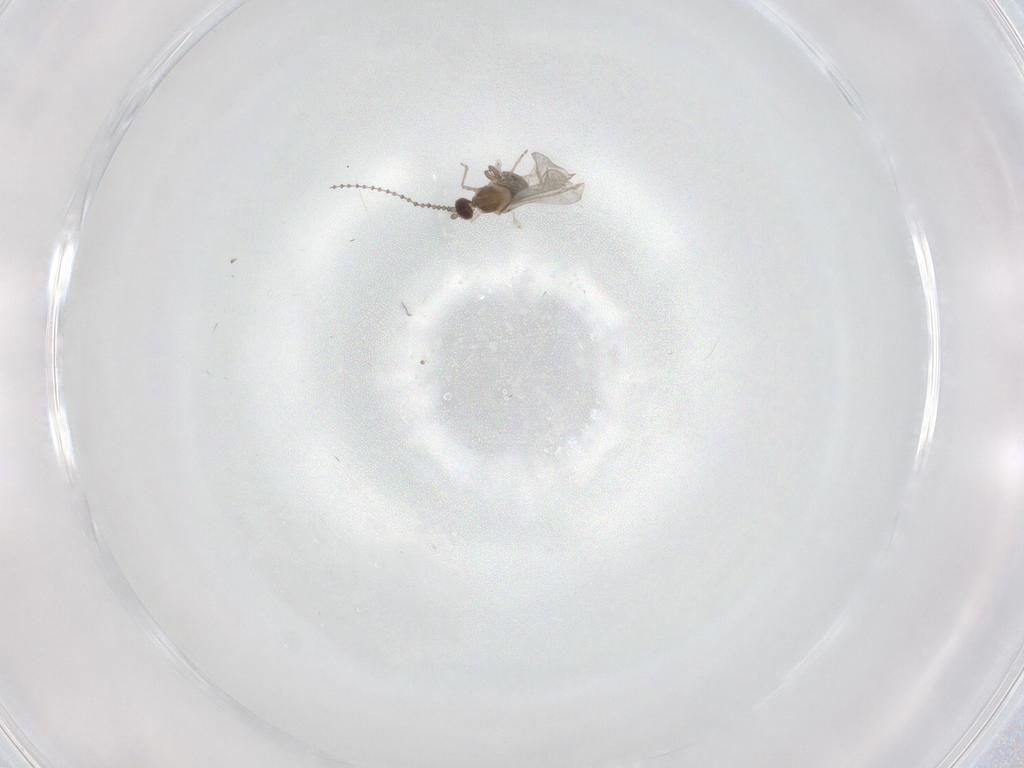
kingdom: Animalia
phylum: Arthropoda
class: Insecta
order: Diptera
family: Cecidomyiidae
